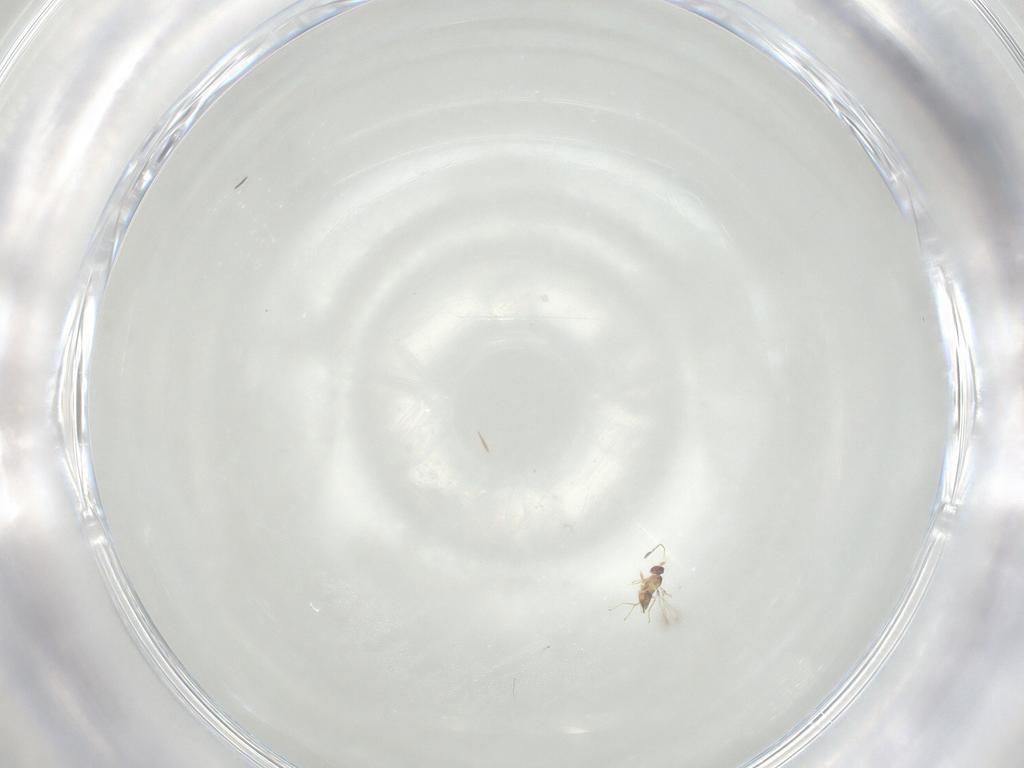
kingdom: Animalia
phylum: Arthropoda
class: Insecta
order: Hymenoptera
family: Mymaridae
